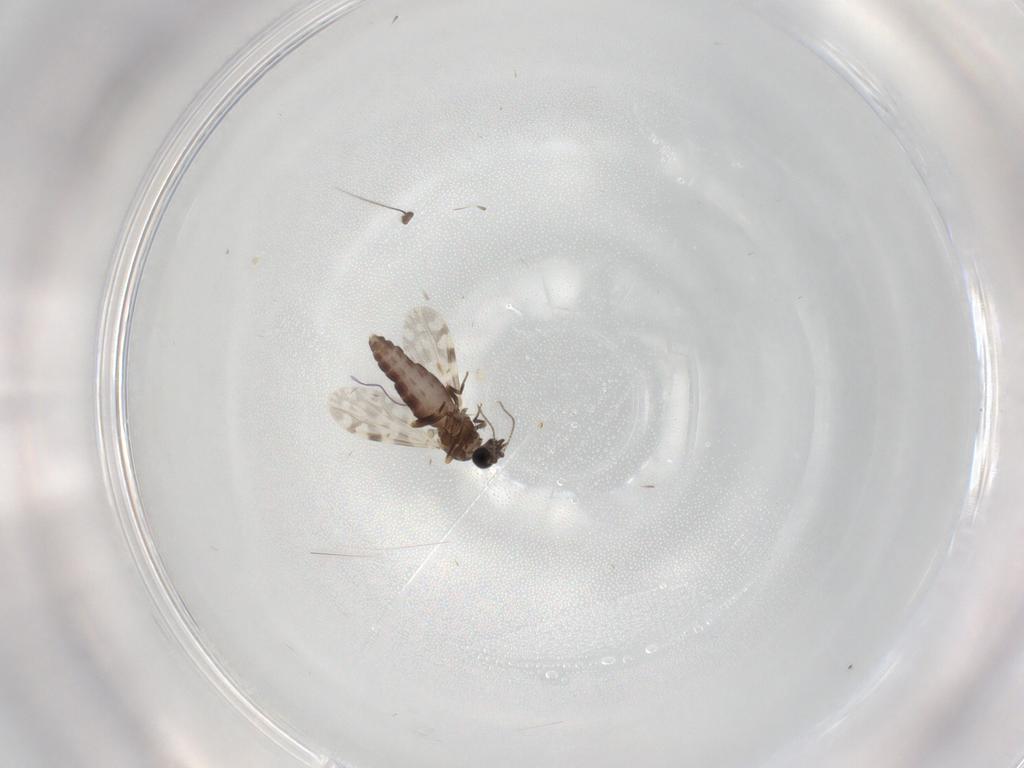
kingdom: Animalia
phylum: Arthropoda
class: Insecta
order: Diptera
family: Ceratopogonidae
